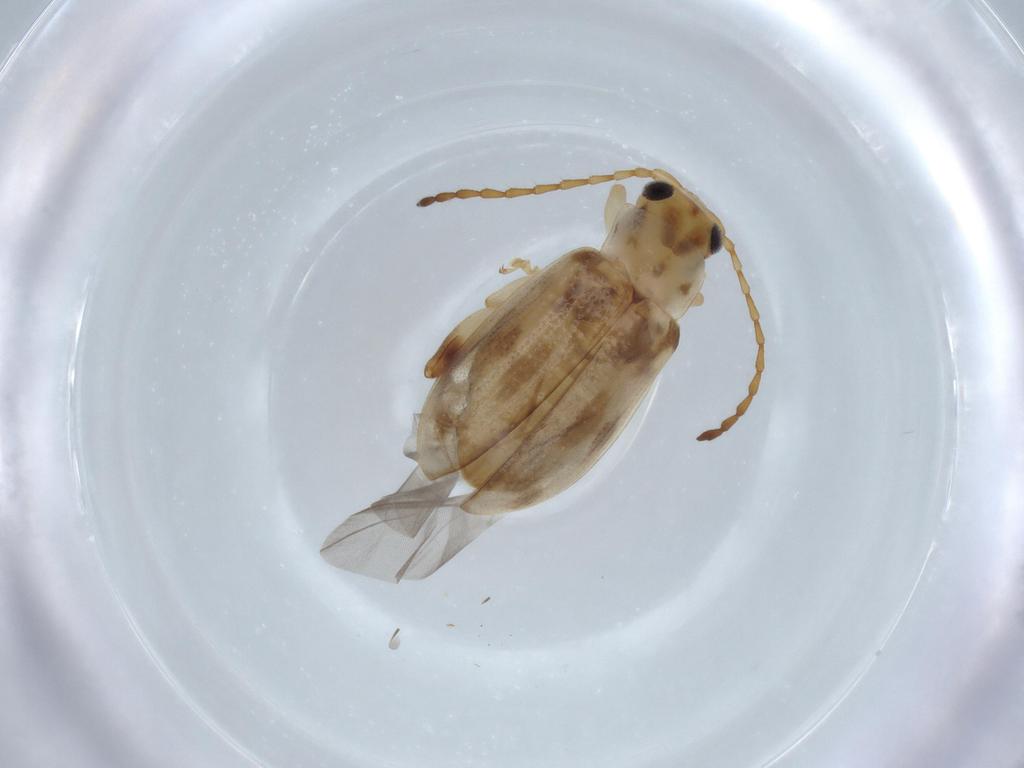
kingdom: Animalia
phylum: Arthropoda
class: Insecta
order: Coleoptera
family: Chrysomelidae
